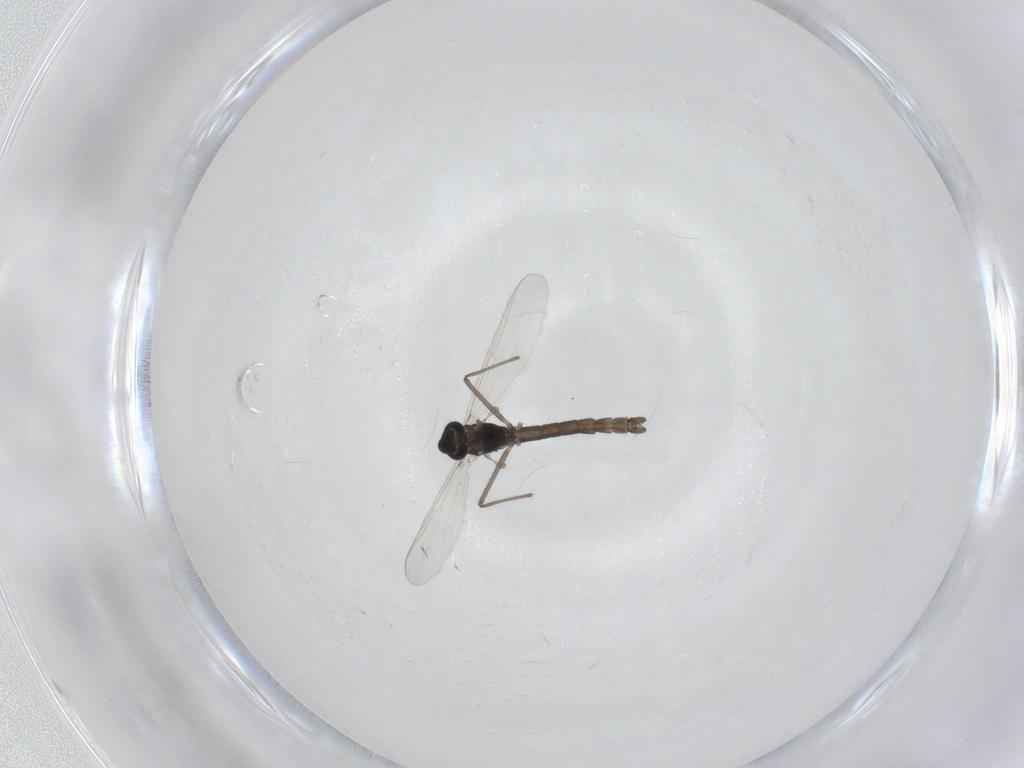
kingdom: Animalia
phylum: Arthropoda
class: Insecta
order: Diptera
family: Chironomidae
